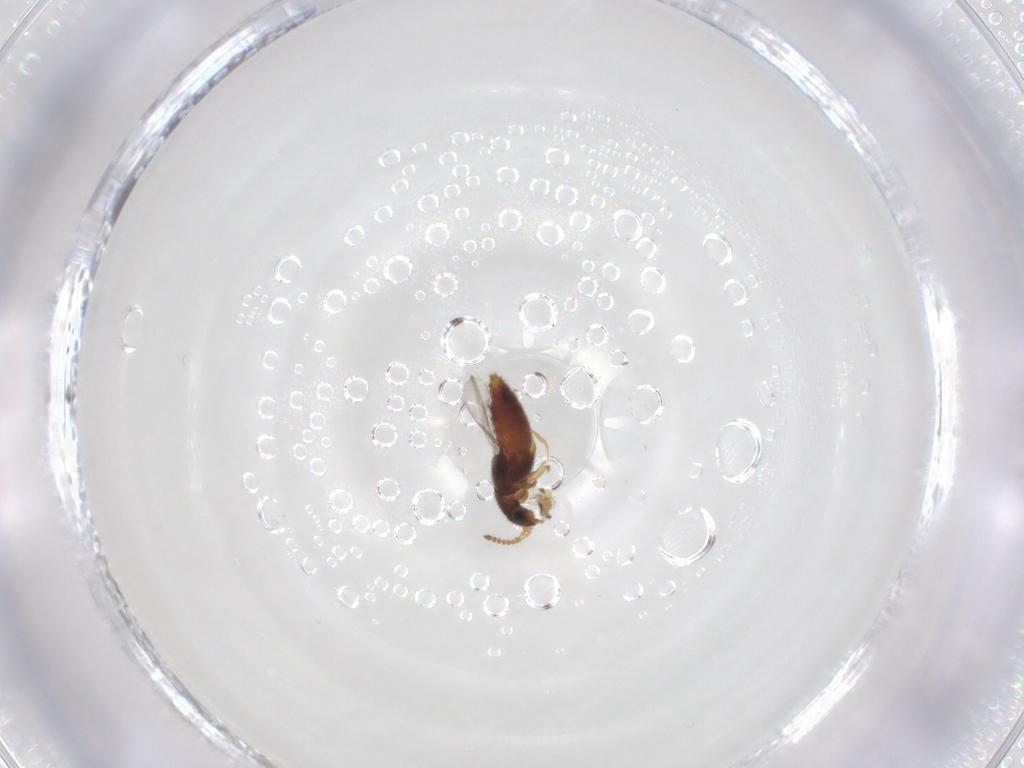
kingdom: Animalia
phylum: Arthropoda
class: Insecta
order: Coleoptera
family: Staphylinidae
